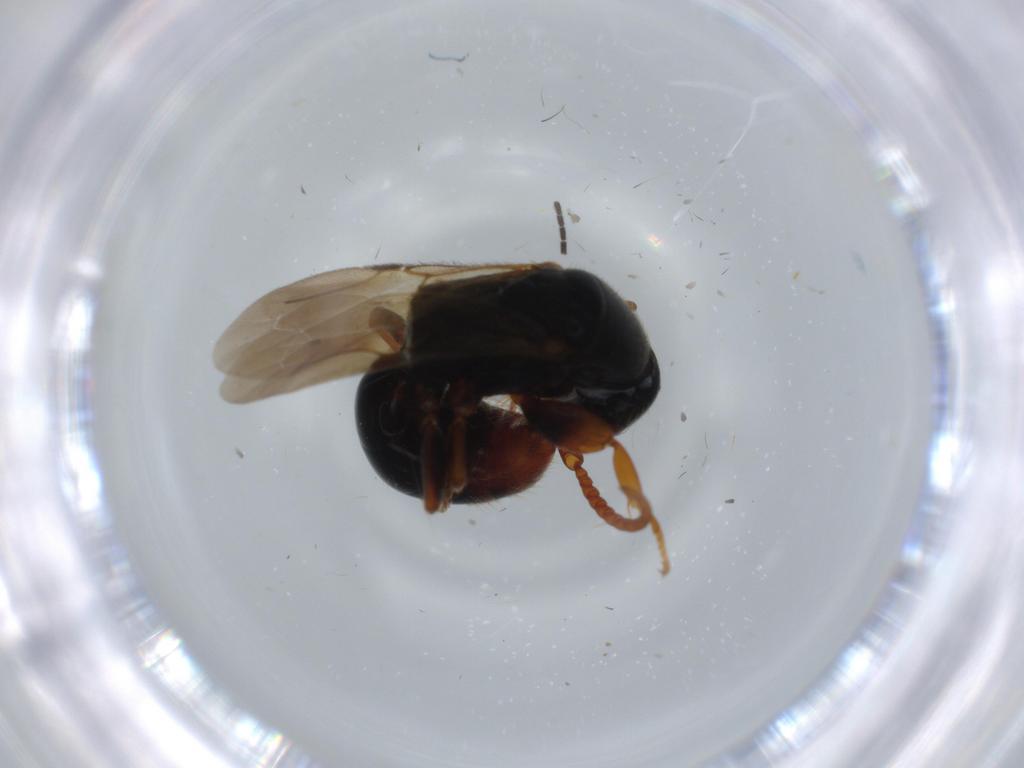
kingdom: Animalia
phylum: Arthropoda
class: Insecta
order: Hymenoptera
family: Bethylidae
